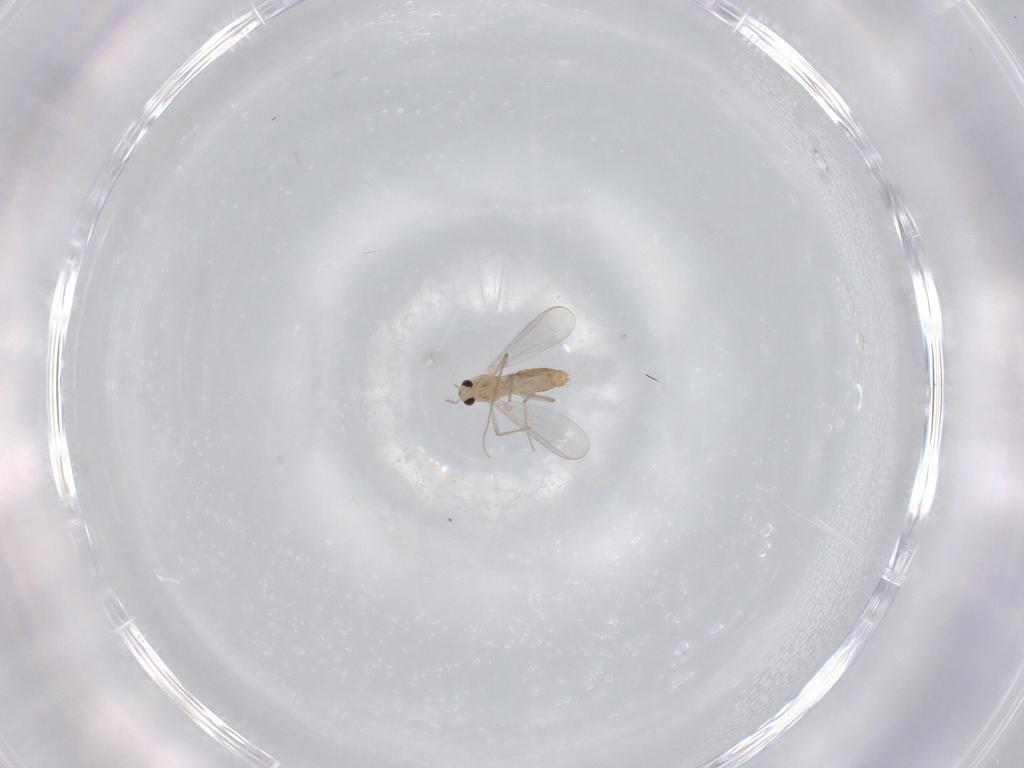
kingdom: Animalia
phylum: Arthropoda
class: Insecta
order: Diptera
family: Chironomidae
